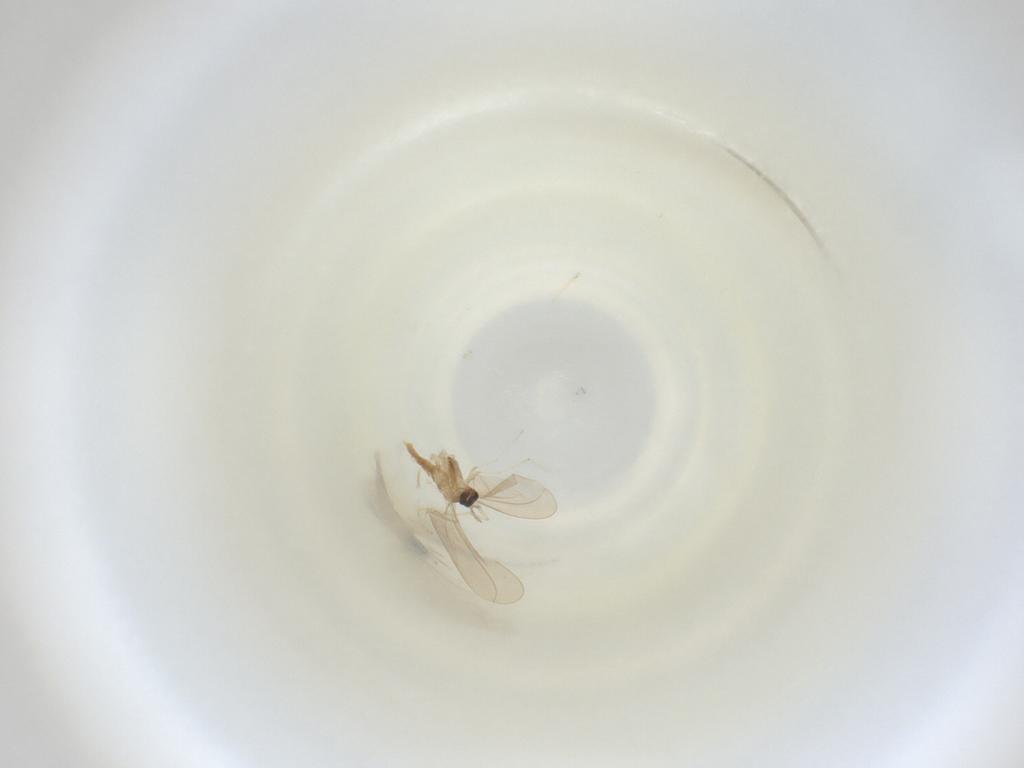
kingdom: Animalia
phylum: Arthropoda
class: Insecta
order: Diptera
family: Cecidomyiidae
